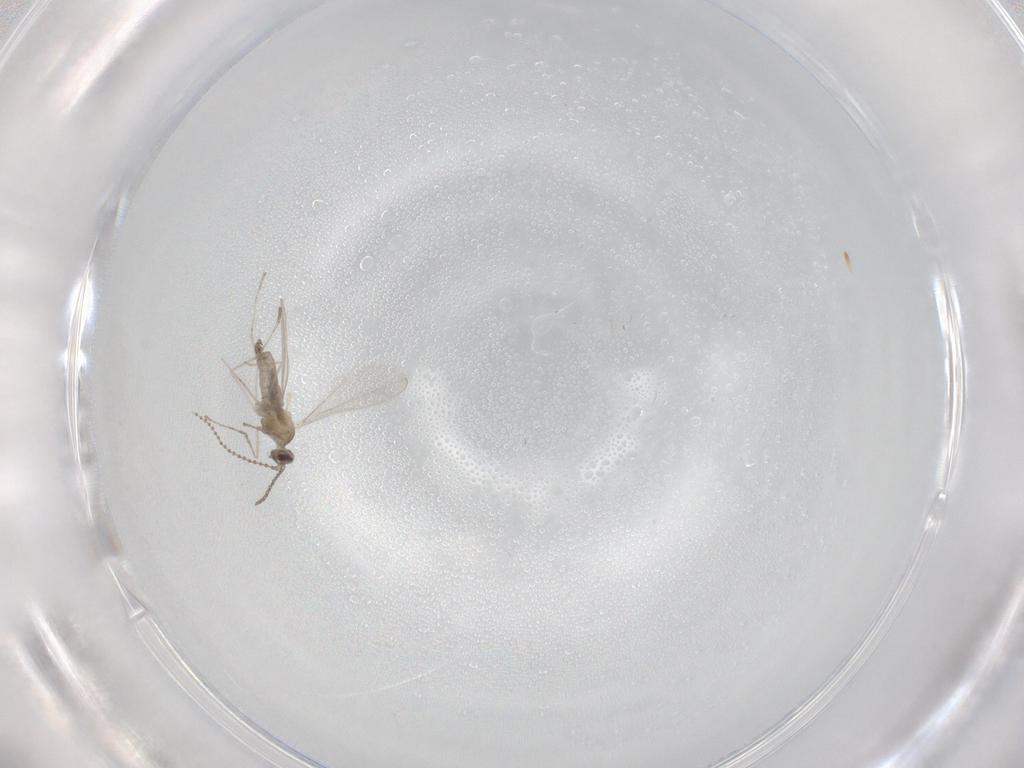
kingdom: Animalia
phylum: Arthropoda
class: Insecta
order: Diptera
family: Cecidomyiidae
